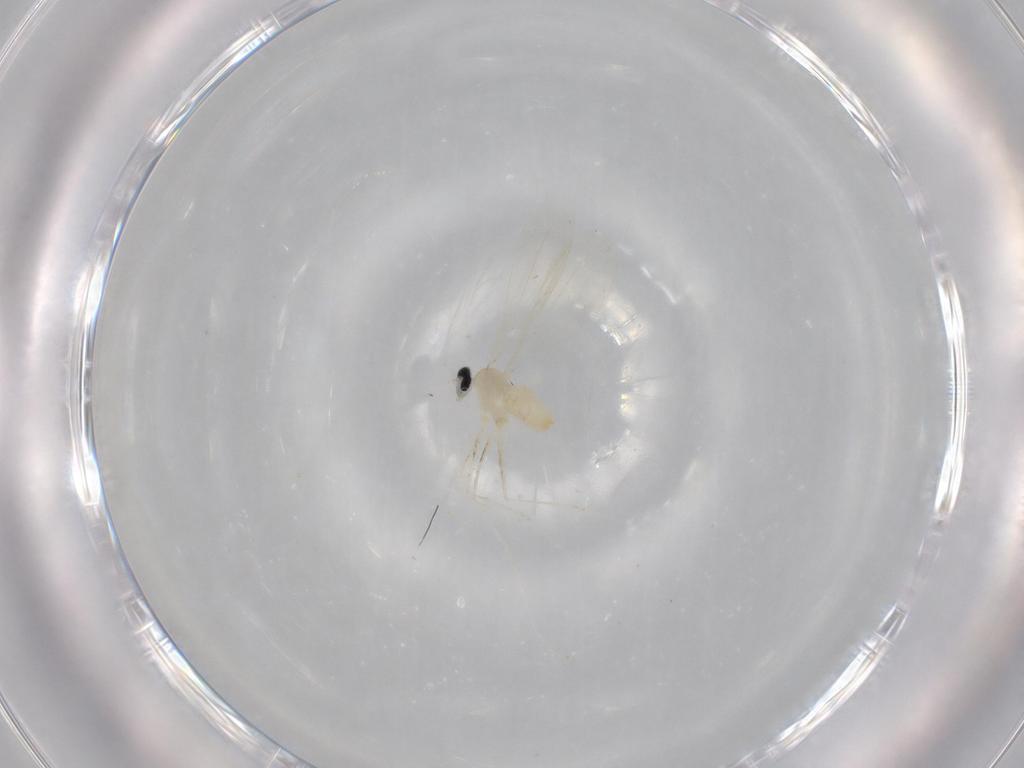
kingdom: Animalia
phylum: Arthropoda
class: Insecta
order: Diptera
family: Cecidomyiidae
